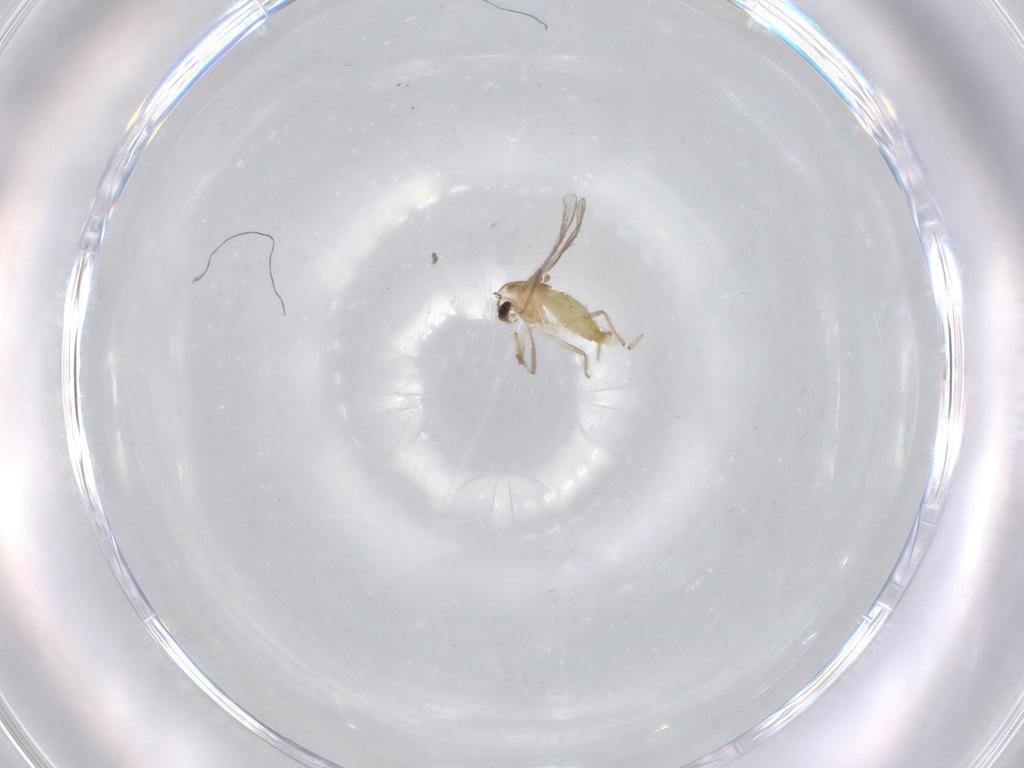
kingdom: Animalia
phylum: Arthropoda
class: Insecta
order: Diptera
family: Chironomidae
